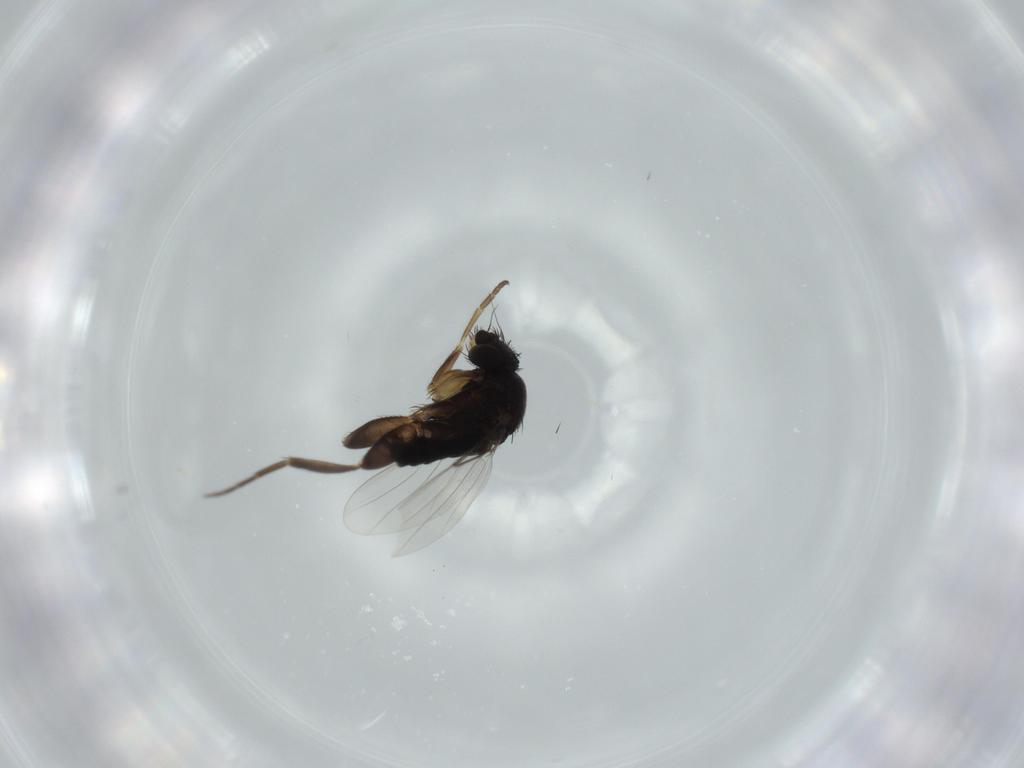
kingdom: Animalia
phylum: Arthropoda
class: Insecta
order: Diptera
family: Phoridae
